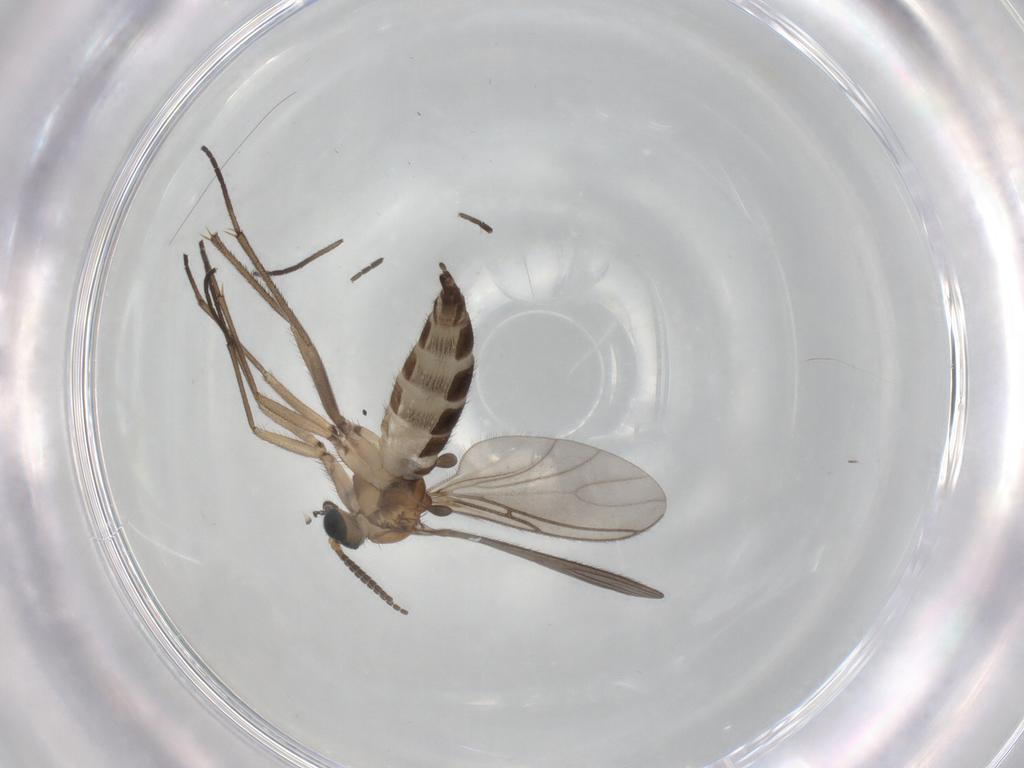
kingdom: Animalia
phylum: Arthropoda
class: Insecta
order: Diptera
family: Sciaridae
